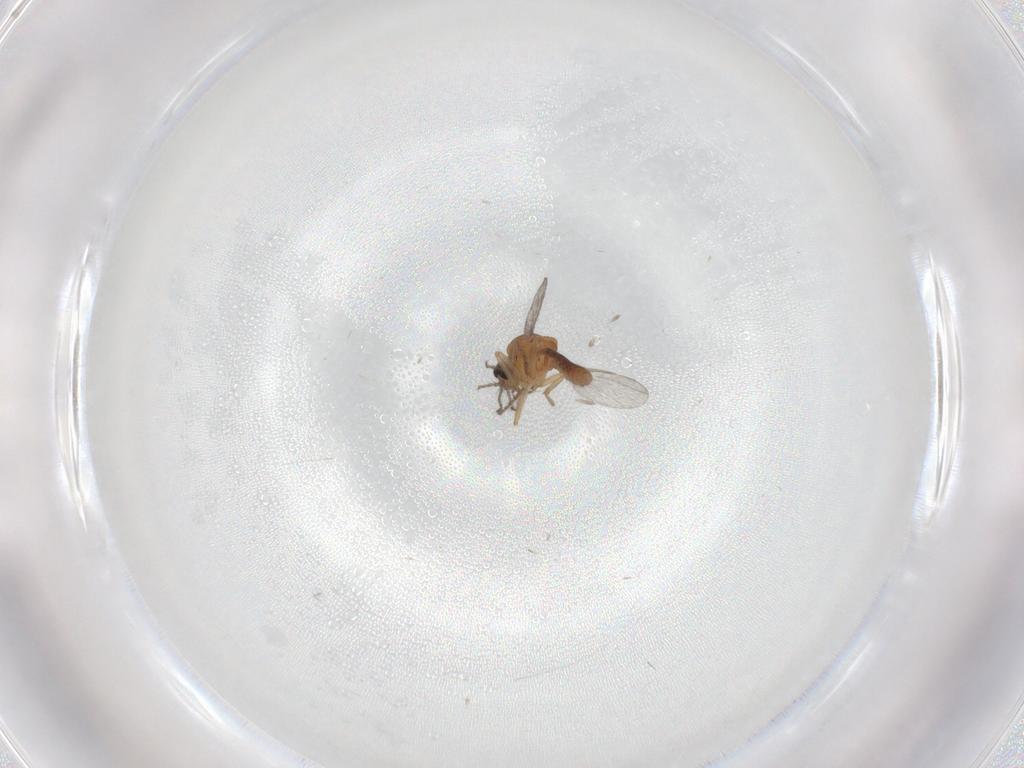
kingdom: Animalia
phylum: Arthropoda
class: Insecta
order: Diptera
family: Ceratopogonidae
